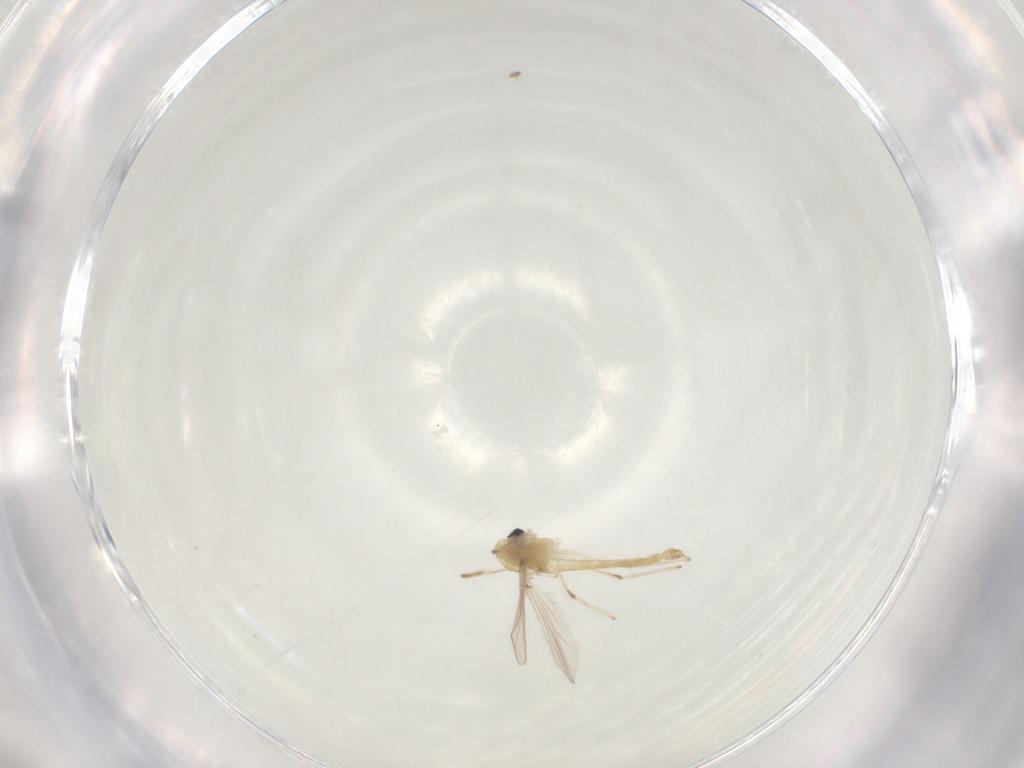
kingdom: Animalia
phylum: Arthropoda
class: Insecta
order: Diptera
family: Chironomidae
